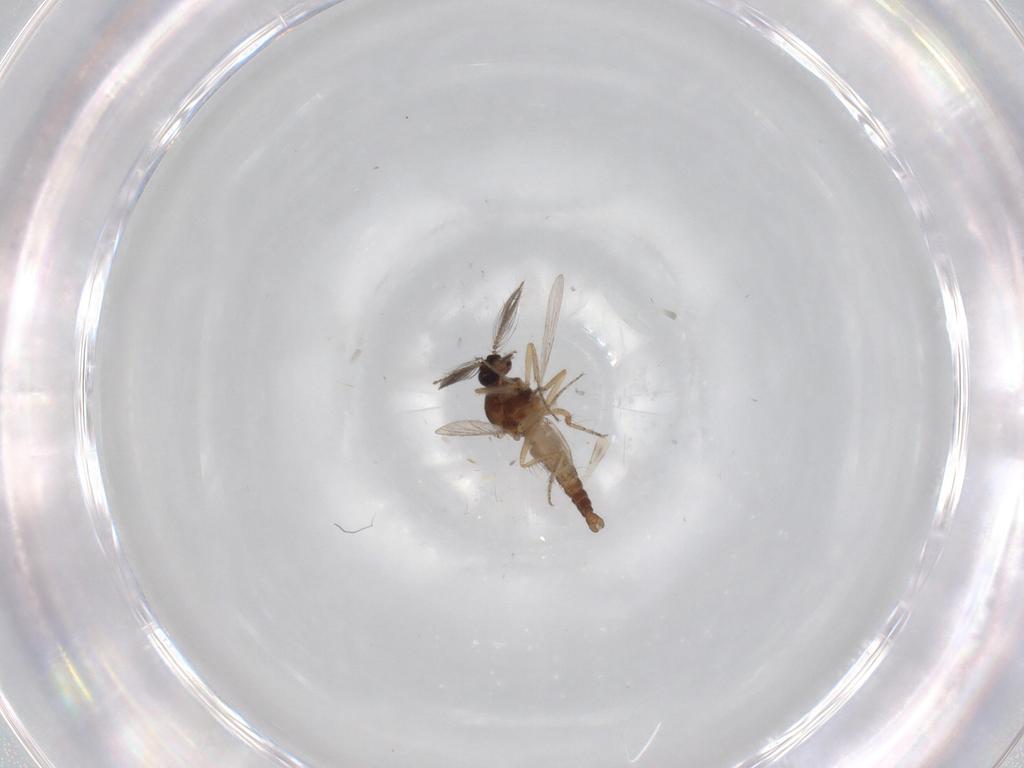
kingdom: Animalia
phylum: Arthropoda
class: Insecta
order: Diptera
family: Ceratopogonidae
